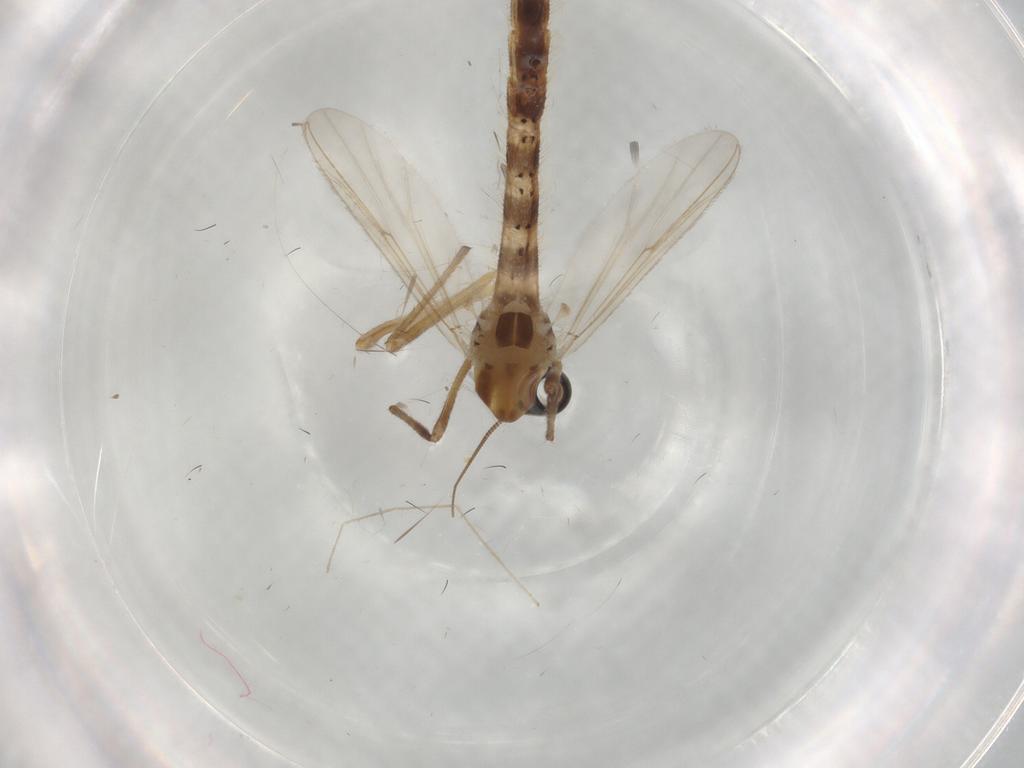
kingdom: Animalia
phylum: Arthropoda
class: Insecta
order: Diptera
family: Chironomidae
